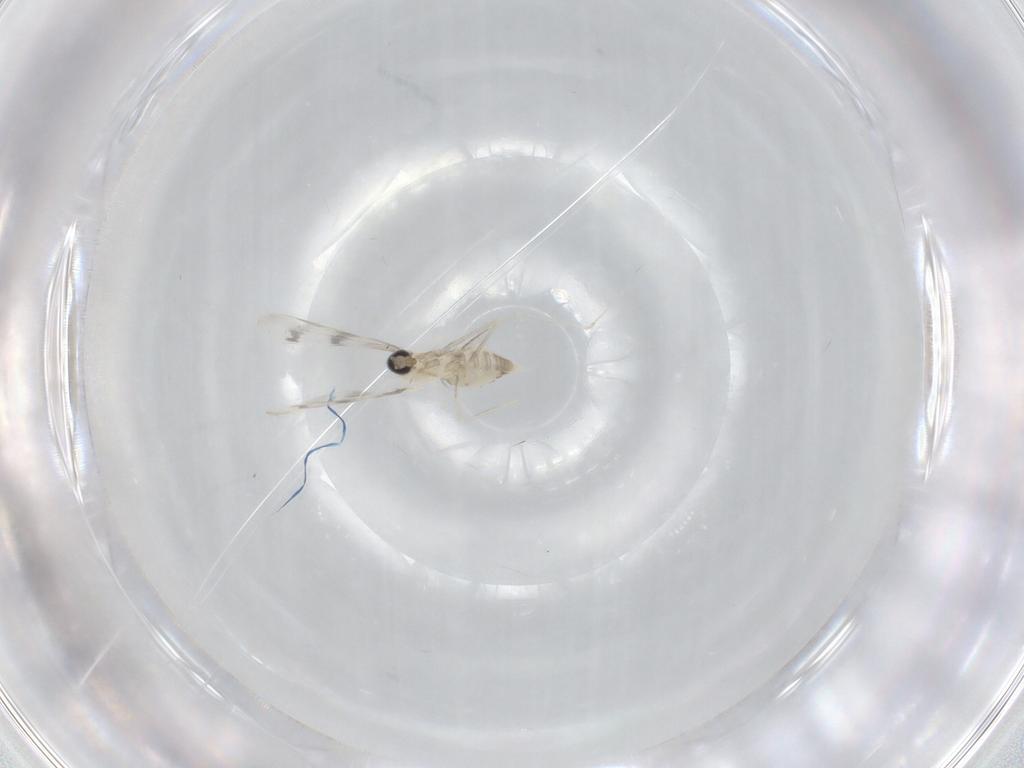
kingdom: Animalia
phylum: Arthropoda
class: Insecta
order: Diptera
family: Cecidomyiidae
